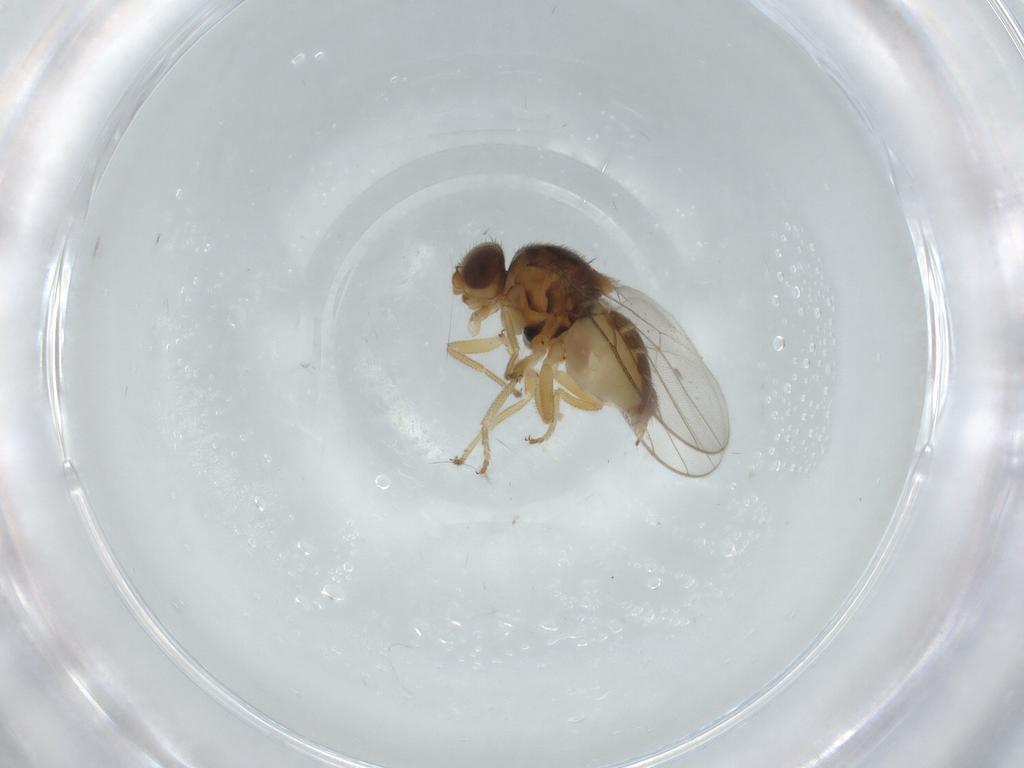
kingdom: Animalia
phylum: Arthropoda
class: Insecta
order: Diptera
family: Chloropidae
